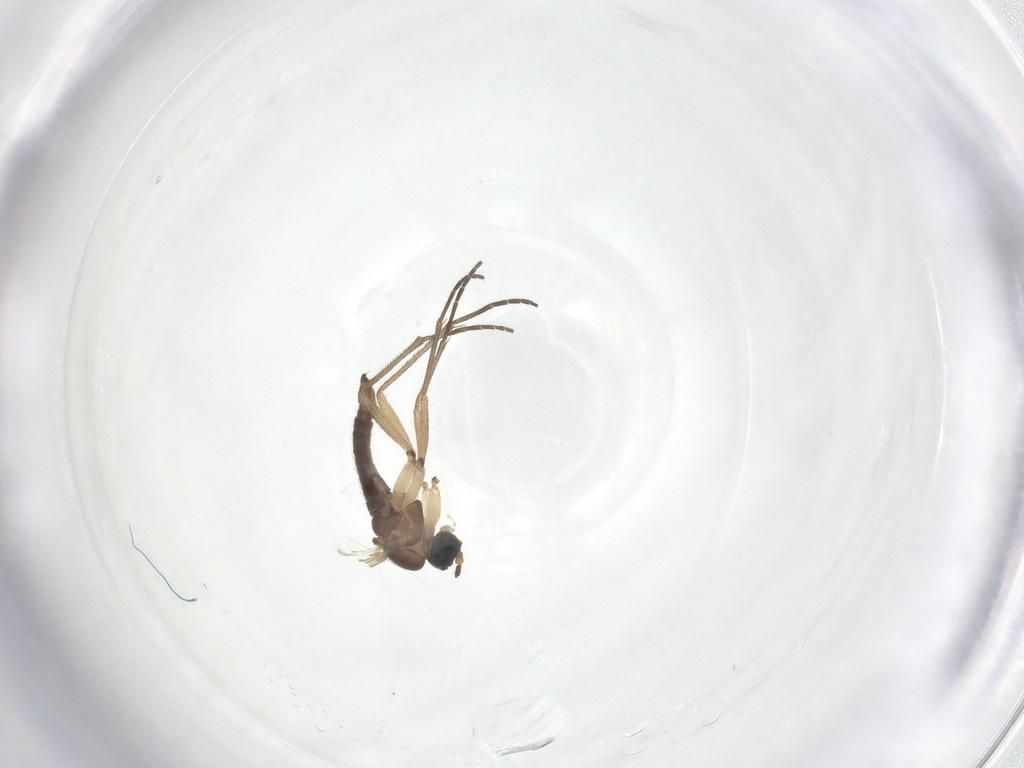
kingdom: Animalia
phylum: Arthropoda
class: Insecta
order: Diptera
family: Sciaridae
